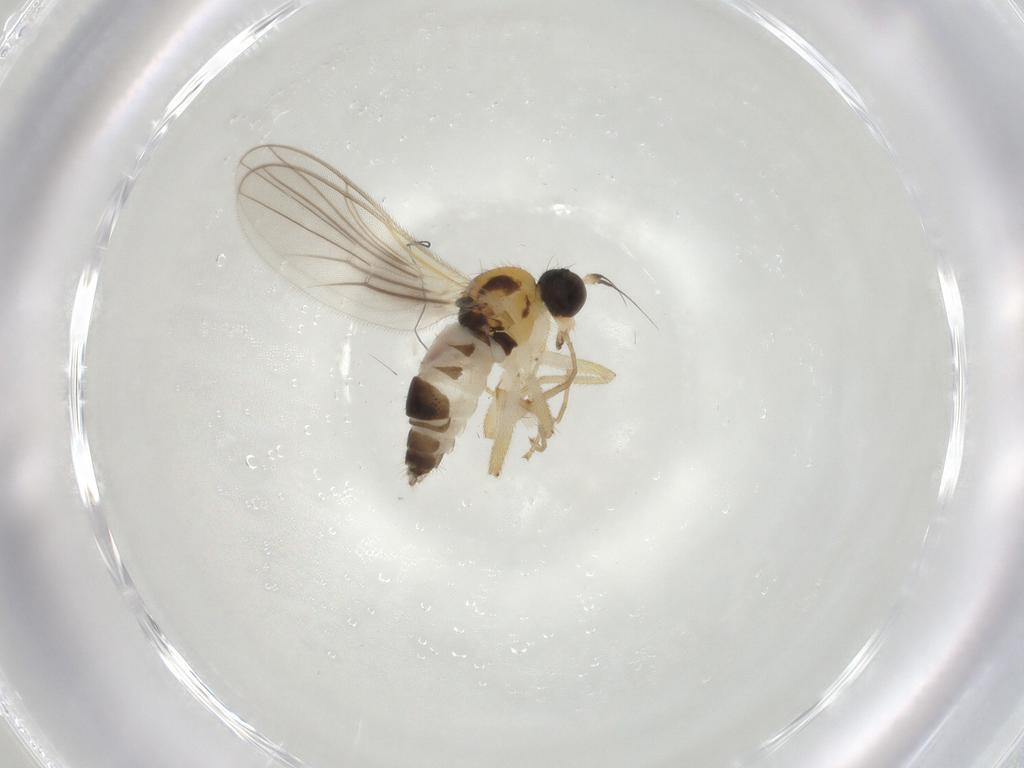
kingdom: Animalia
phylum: Arthropoda
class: Insecta
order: Diptera
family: Hybotidae
